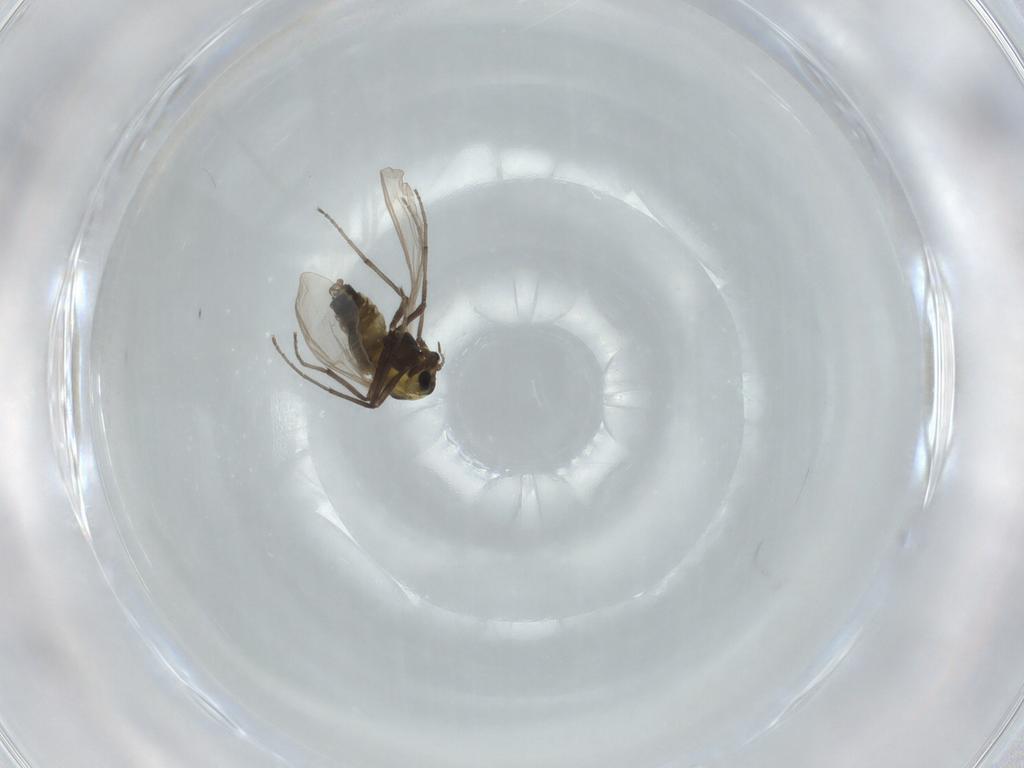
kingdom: Animalia
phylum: Arthropoda
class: Insecta
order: Diptera
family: Chironomidae
